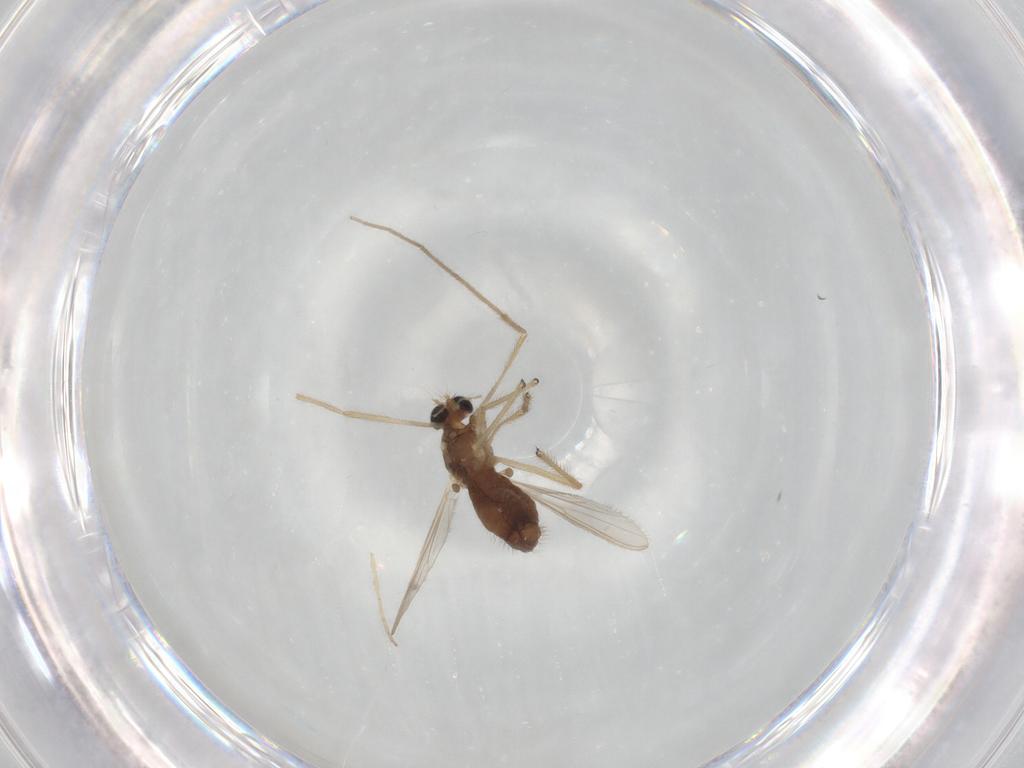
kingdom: Animalia
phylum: Arthropoda
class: Insecta
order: Diptera
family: Chironomidae
